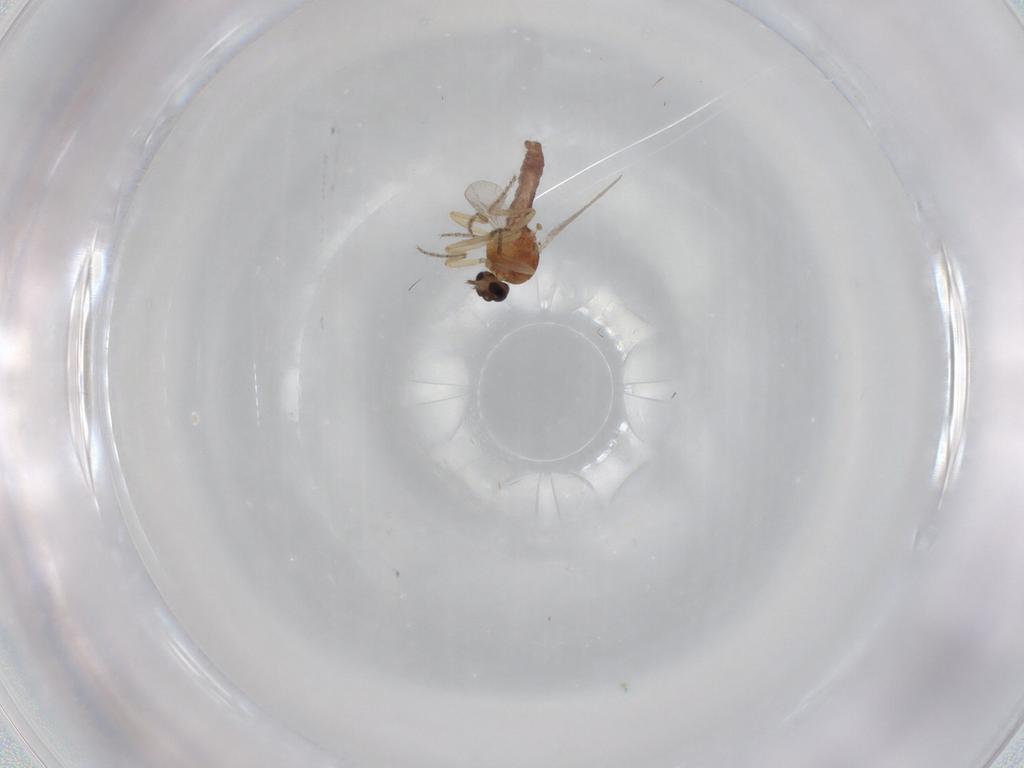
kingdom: Animalia
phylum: Arthropoda
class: Insecta
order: Diptera
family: Ceratopogonidae
